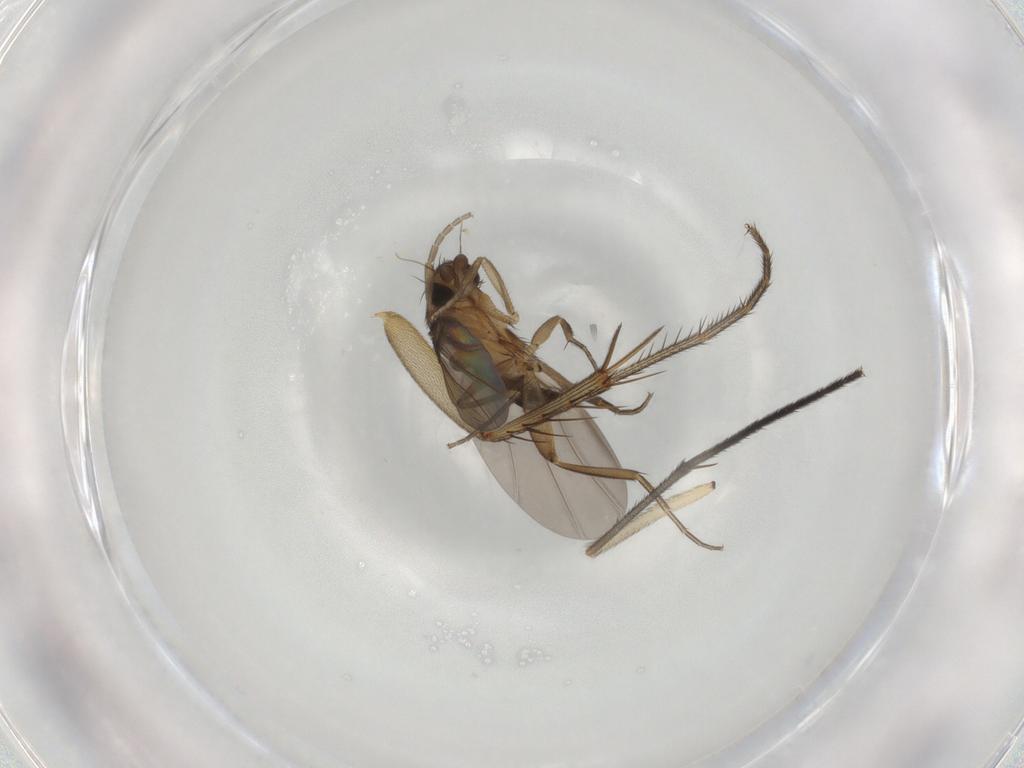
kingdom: Animalia
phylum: Arthropoda
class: Insecta
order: Diptera
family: Phoridae
